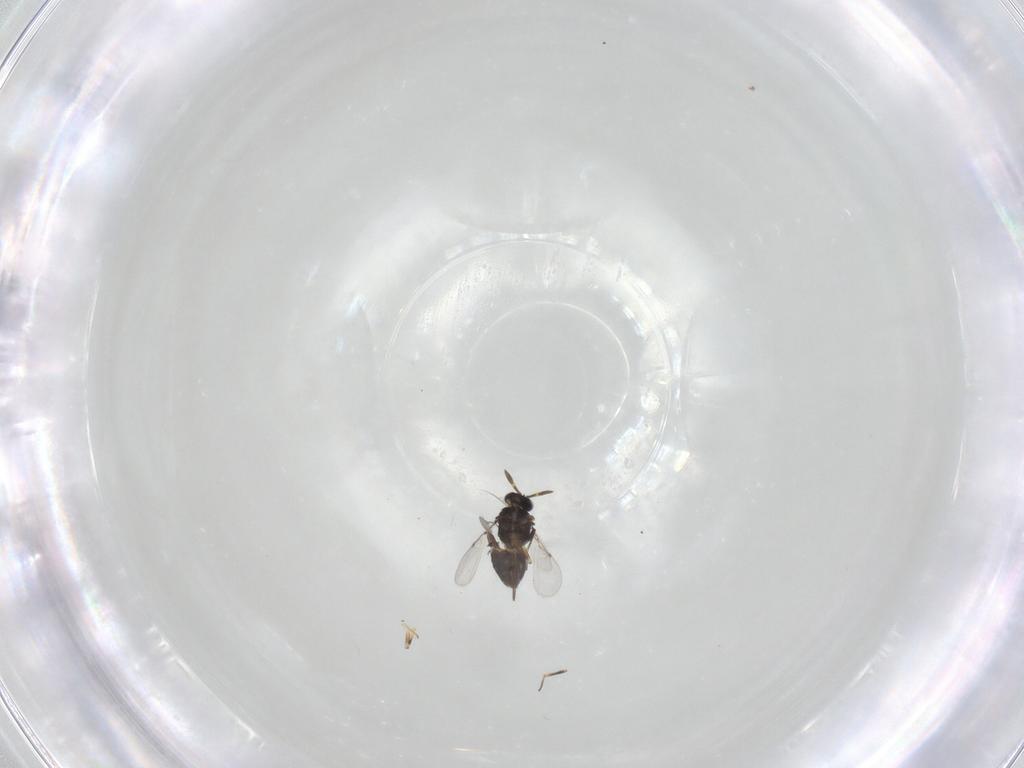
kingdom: Animalia
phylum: Arthropoda
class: Insecta
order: Hymenoptera
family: Encyrtidae
